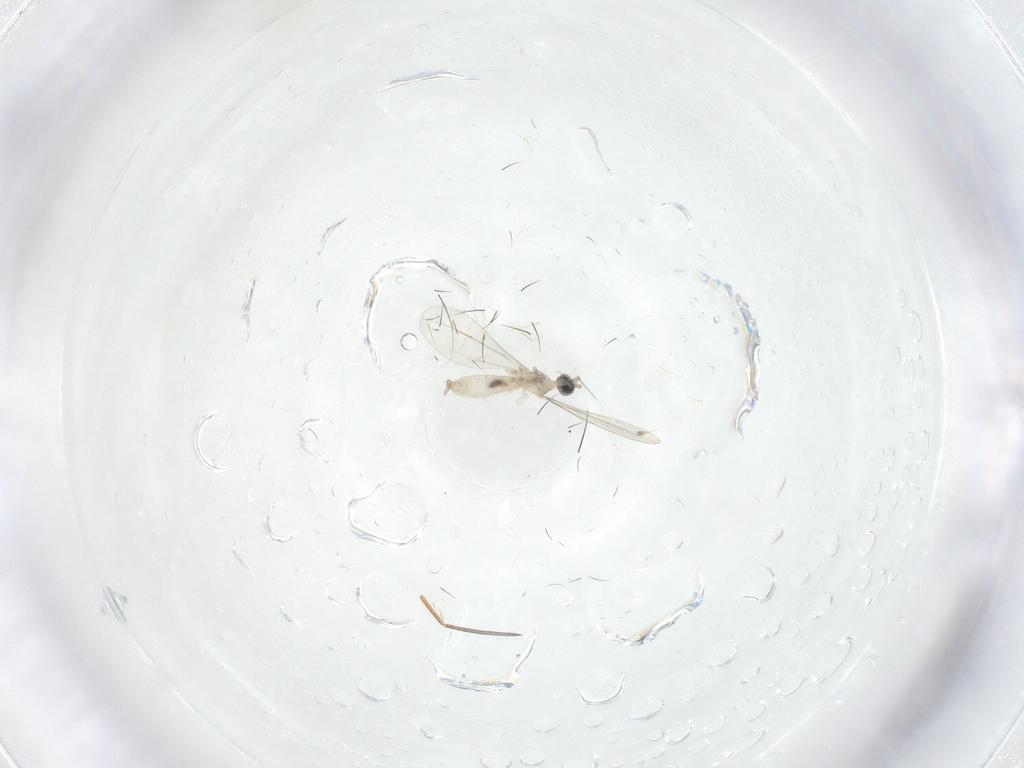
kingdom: Animalia
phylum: Arthropoda
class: Insecta
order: Diptera
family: Cecidomyiidae
